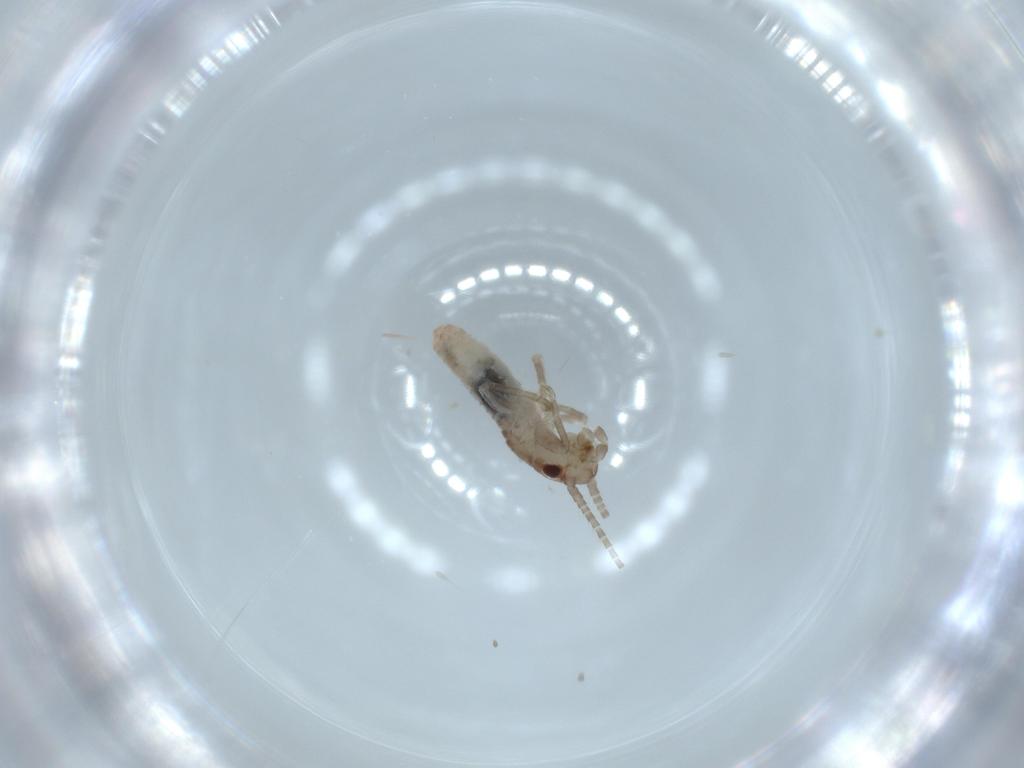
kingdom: Animalia
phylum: Arthropoda
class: Insecta
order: Orthoptera
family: Mogoplistidae
